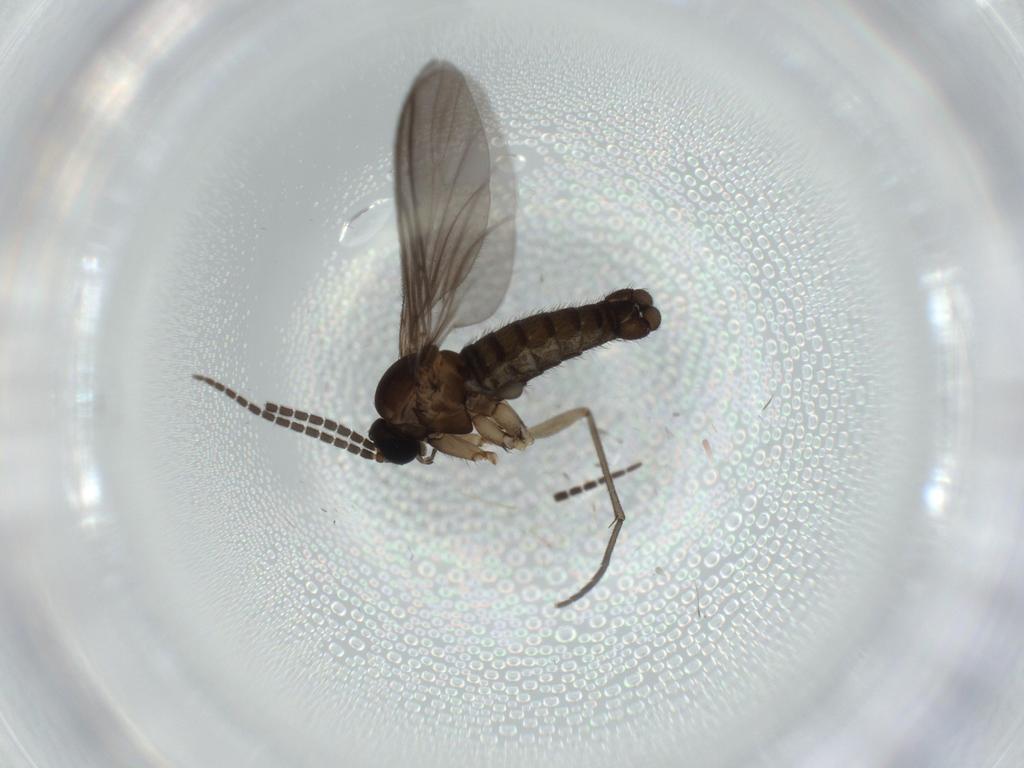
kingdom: Animalia
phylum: Arthropoda
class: Insecta
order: Diptera
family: Sciaridae
